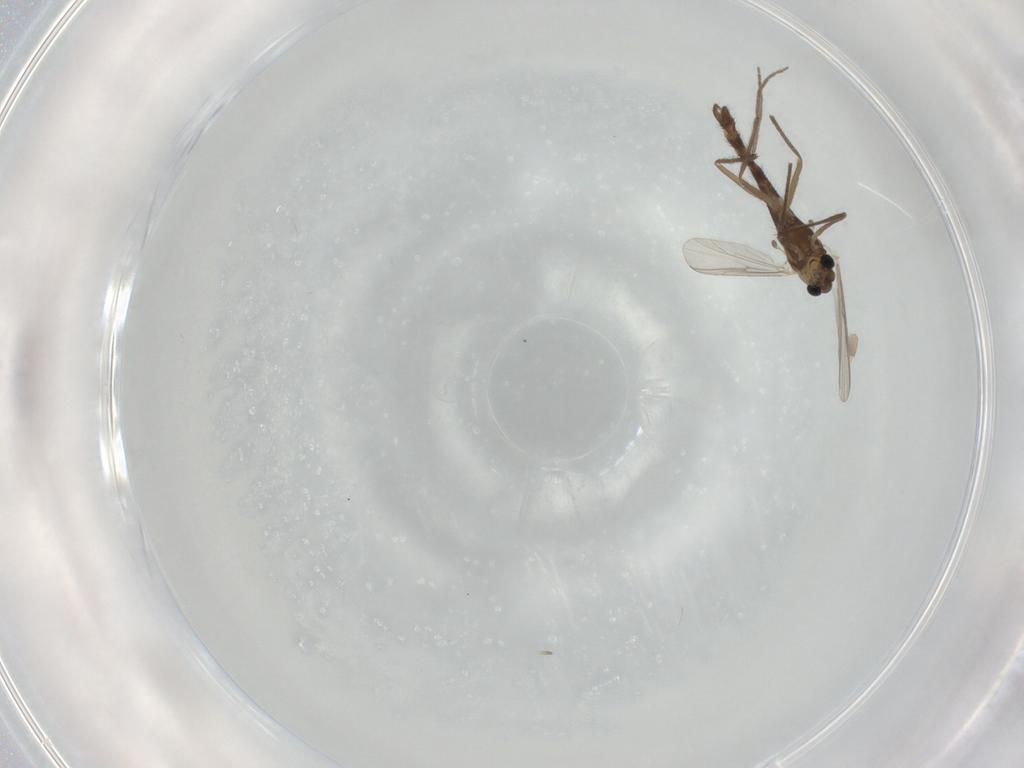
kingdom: Animalia
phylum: Arthropoda
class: Insecta
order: Diptera
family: Chironomidae
